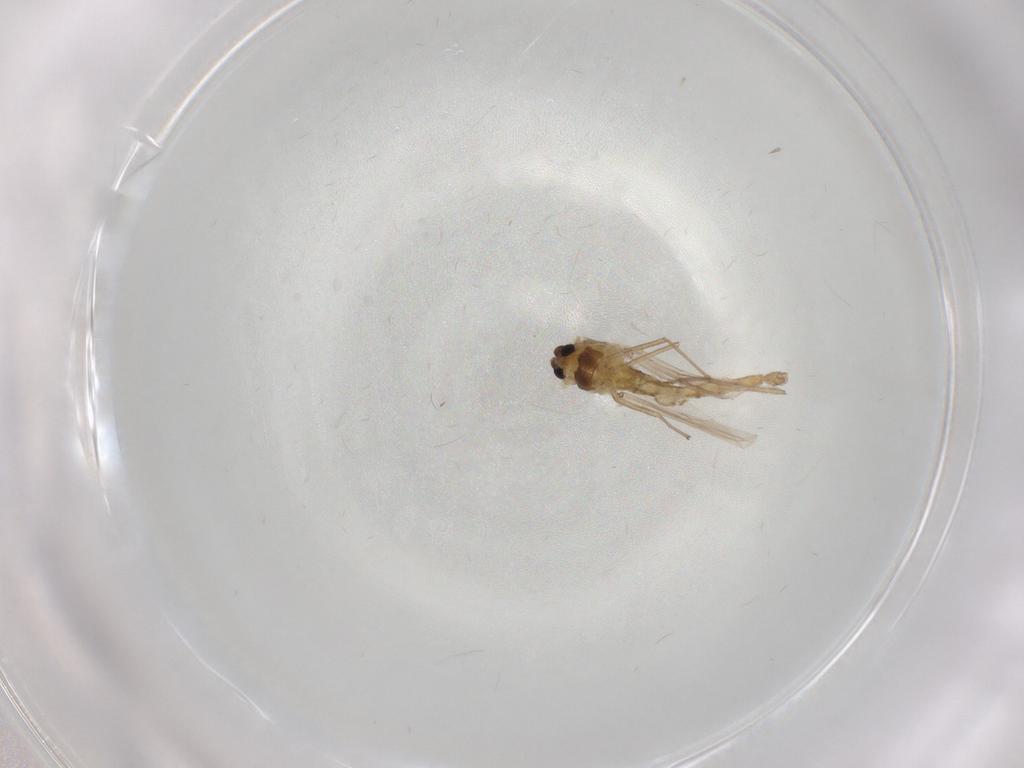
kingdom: Animalia
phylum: Arthropoda
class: Insecta
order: Diptera
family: Chironomidae
